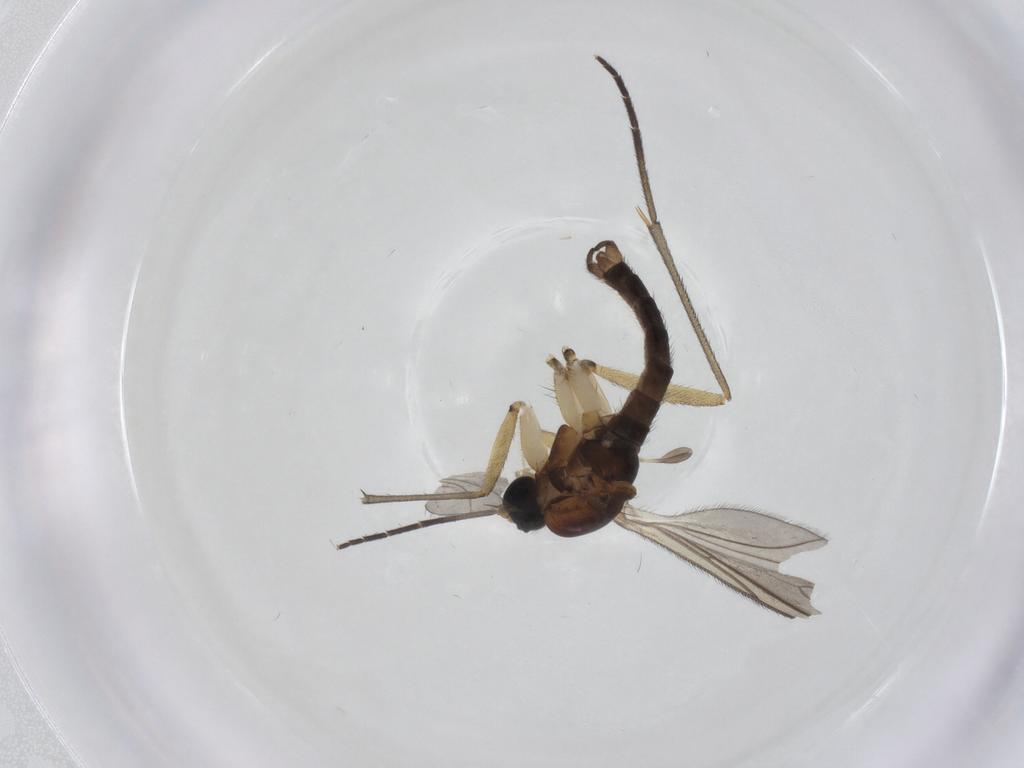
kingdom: Animalia
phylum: Arthropoda
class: Insecta
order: Diptera
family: Sciaridae
